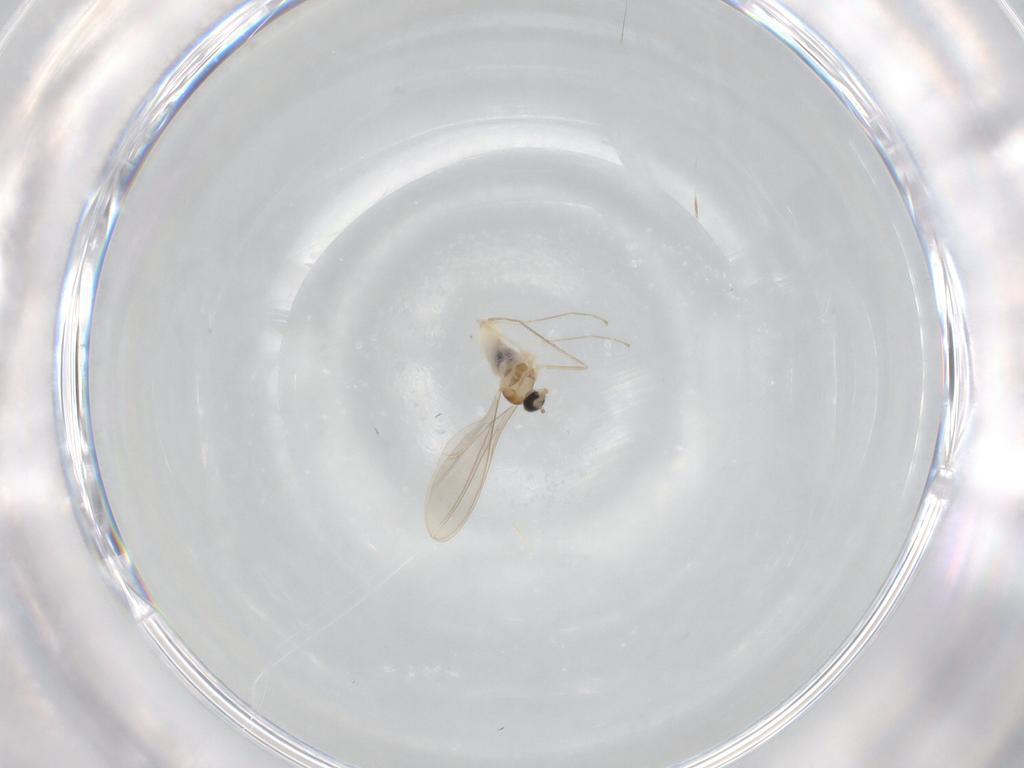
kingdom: Animalia
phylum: Arthropoda
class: Insecta
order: Diptera
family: Cecidomyiidae
